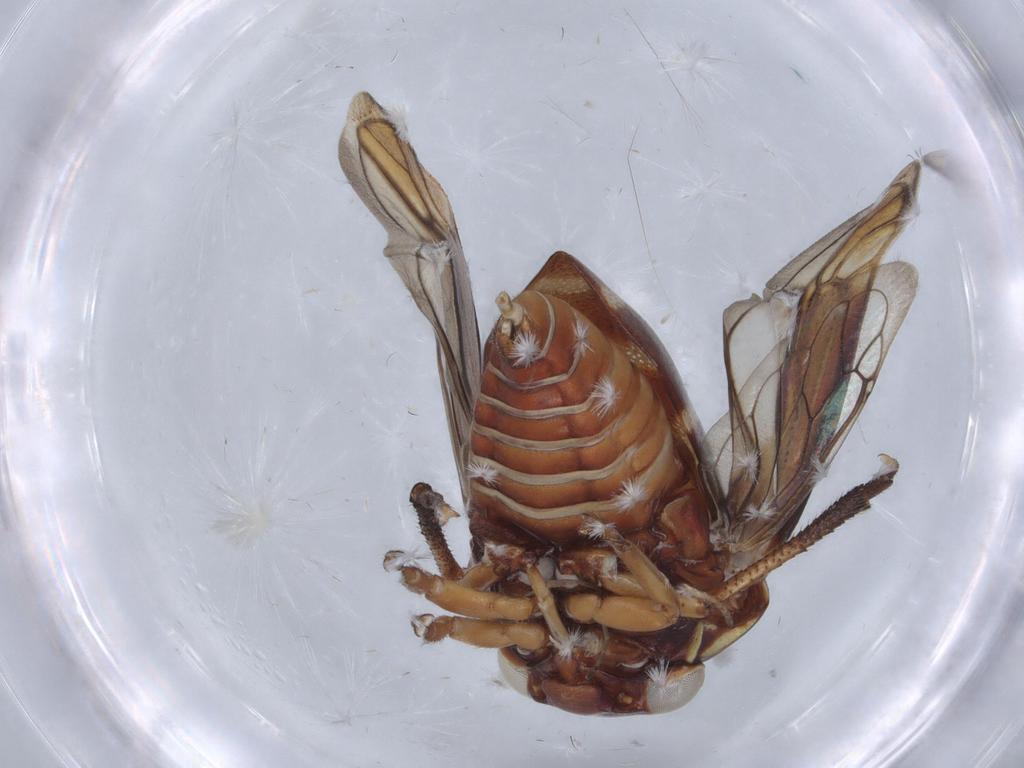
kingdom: Animalia
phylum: Arthropoda
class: Insecta
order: Hemiptera
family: Membracidae
